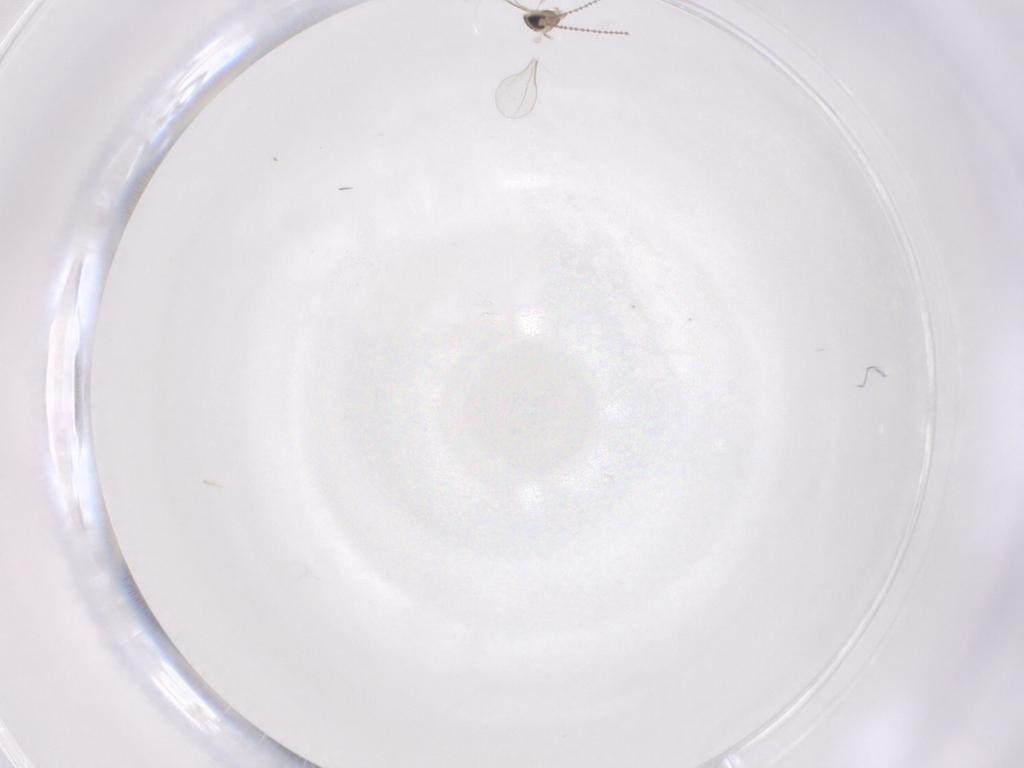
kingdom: Animalia
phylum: Arthropoda
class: Insecta
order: Diptera
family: Cecidomyiidae
